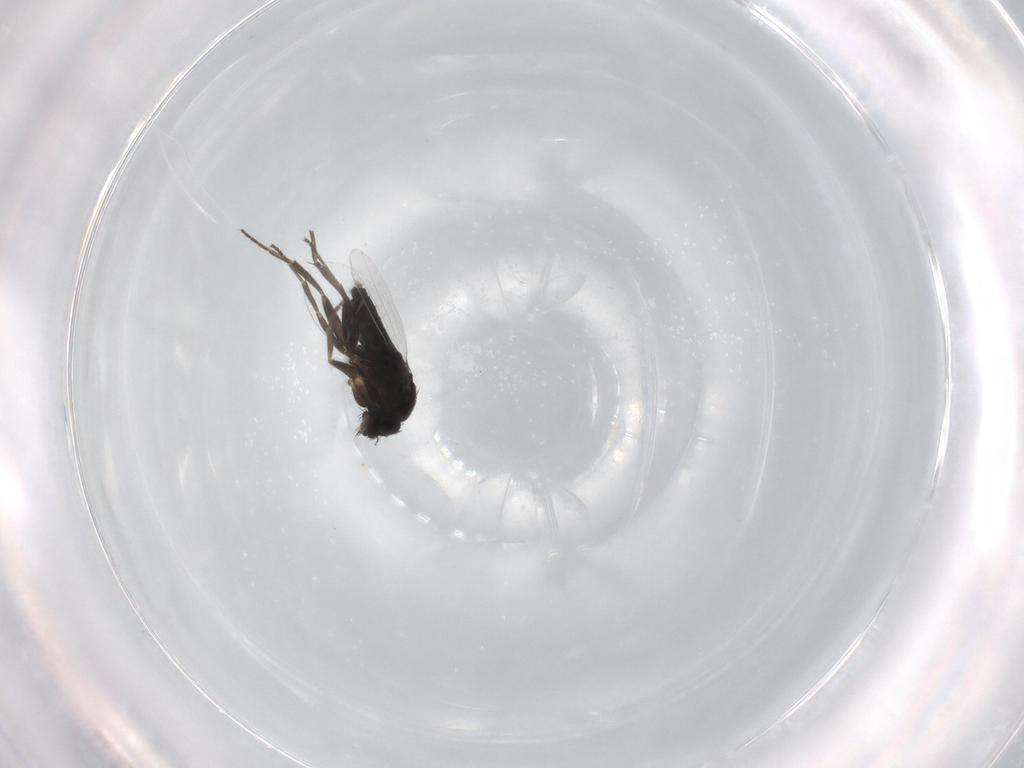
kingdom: Animalia
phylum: Arthropoda
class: Insecta
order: Diptera
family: Phoridae
